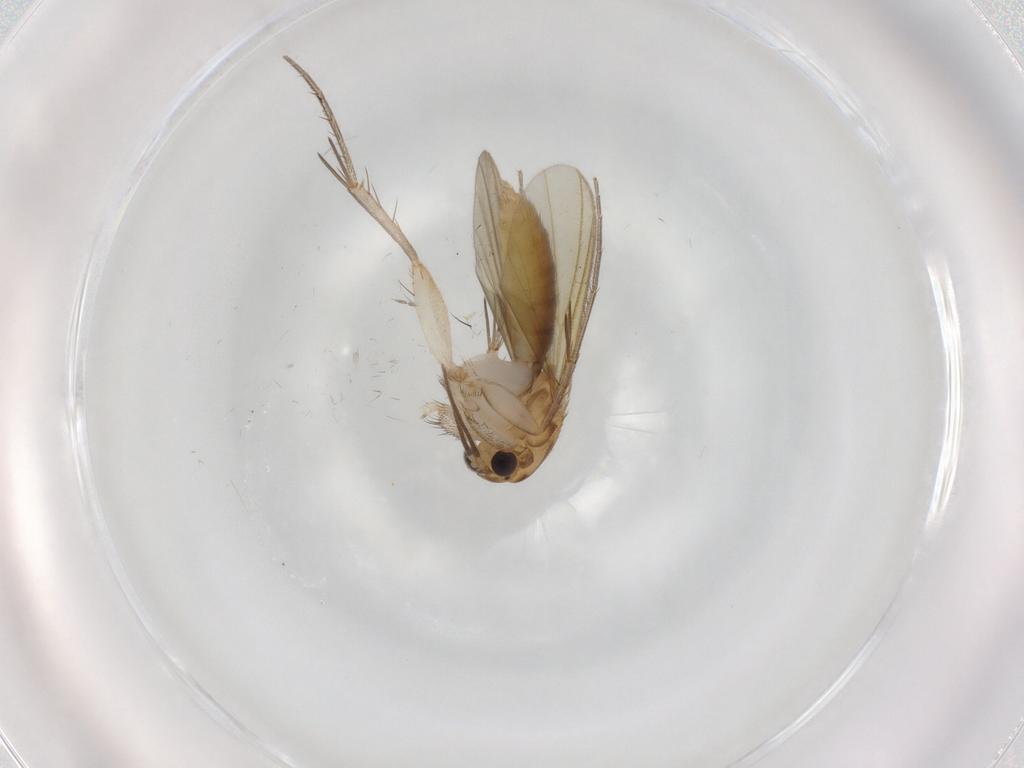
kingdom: Animalia
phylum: Arthropoda
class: Insecta
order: Diptera
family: Mycetophilidae
